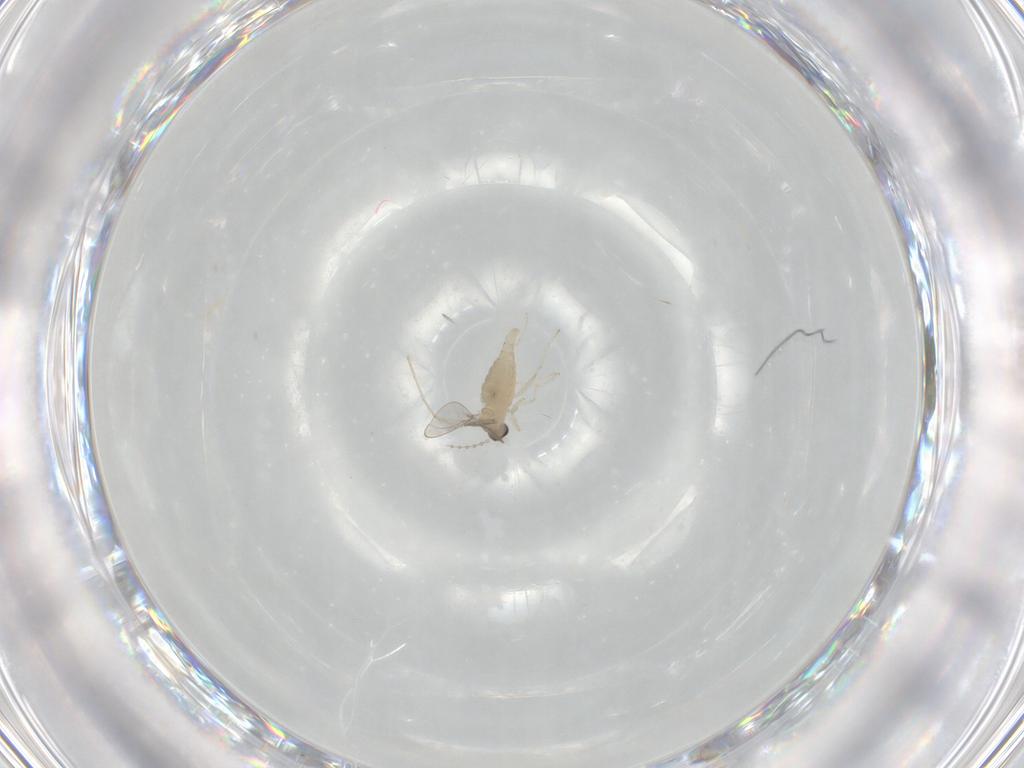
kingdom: Animalia
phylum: Arthropoda
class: Insecta
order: Diptera
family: Cecidomyiidae
